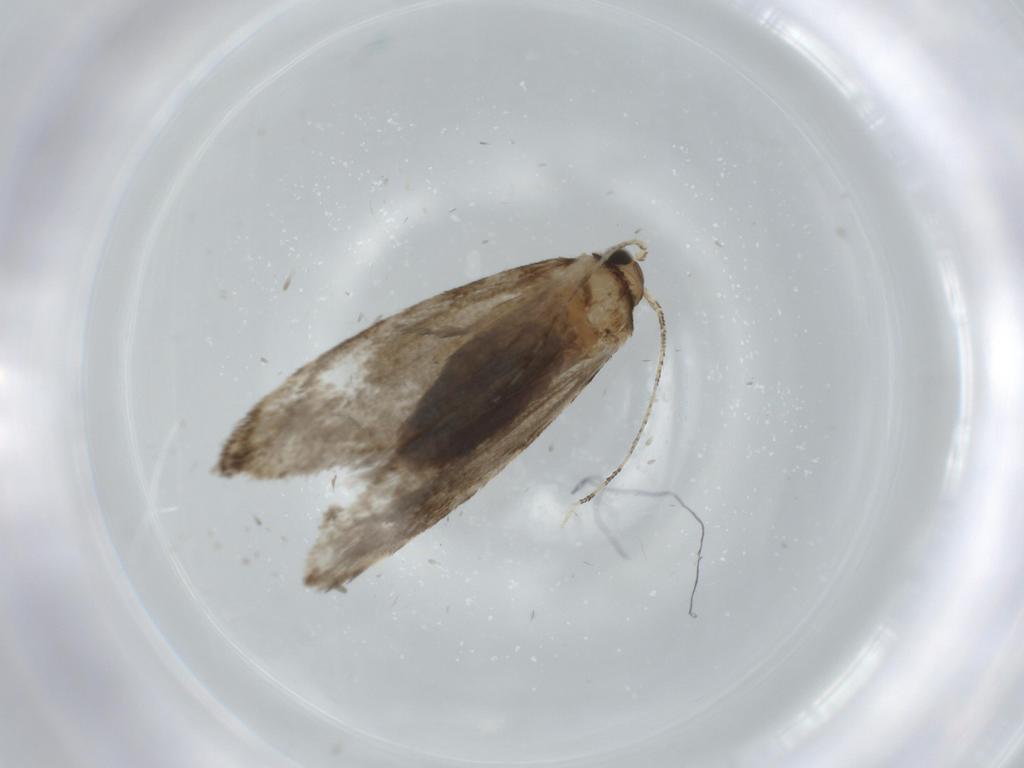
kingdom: Animalia
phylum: Arthropoda
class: Insecta
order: Lepidoptera
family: Tineidae
